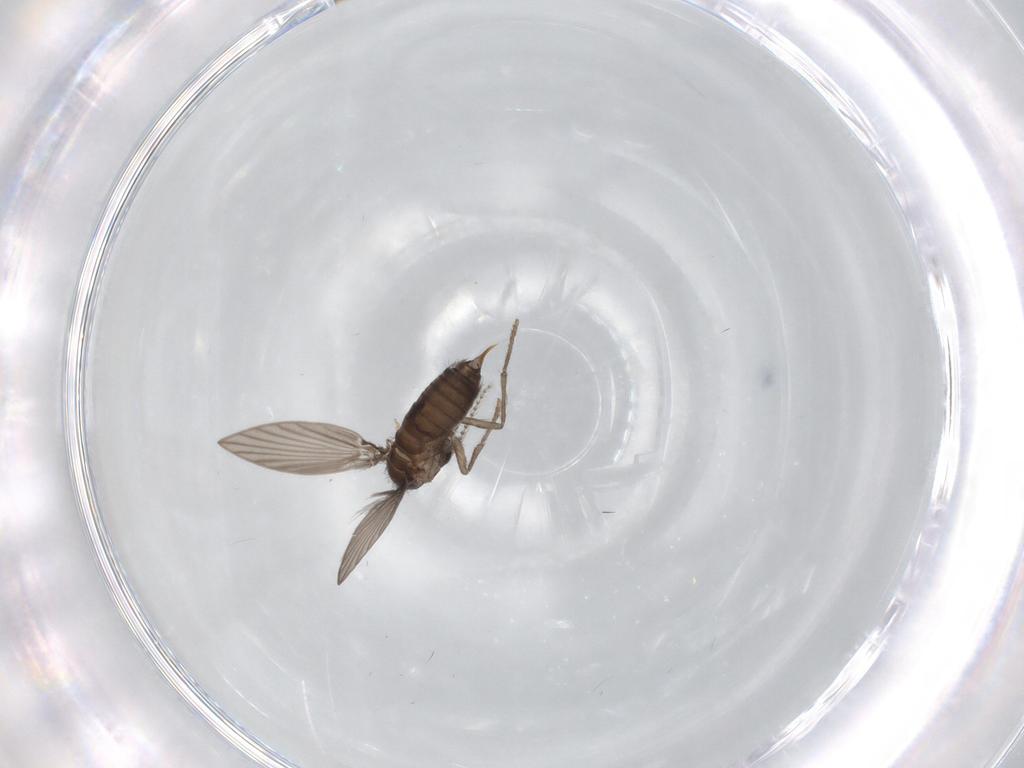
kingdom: Animalia
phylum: Arthropoda
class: Insecta
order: Diptera
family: Psychodidae
